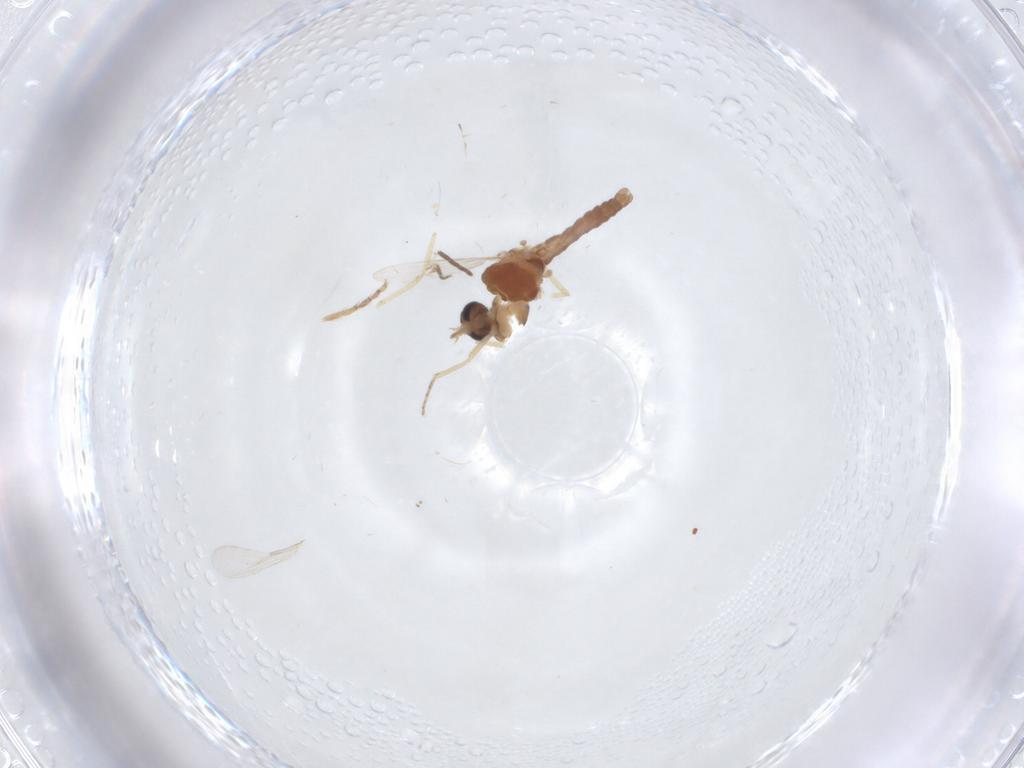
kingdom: Animalia
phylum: Arthropoda
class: Insecta
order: Diptera
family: Ceratopogonidae
